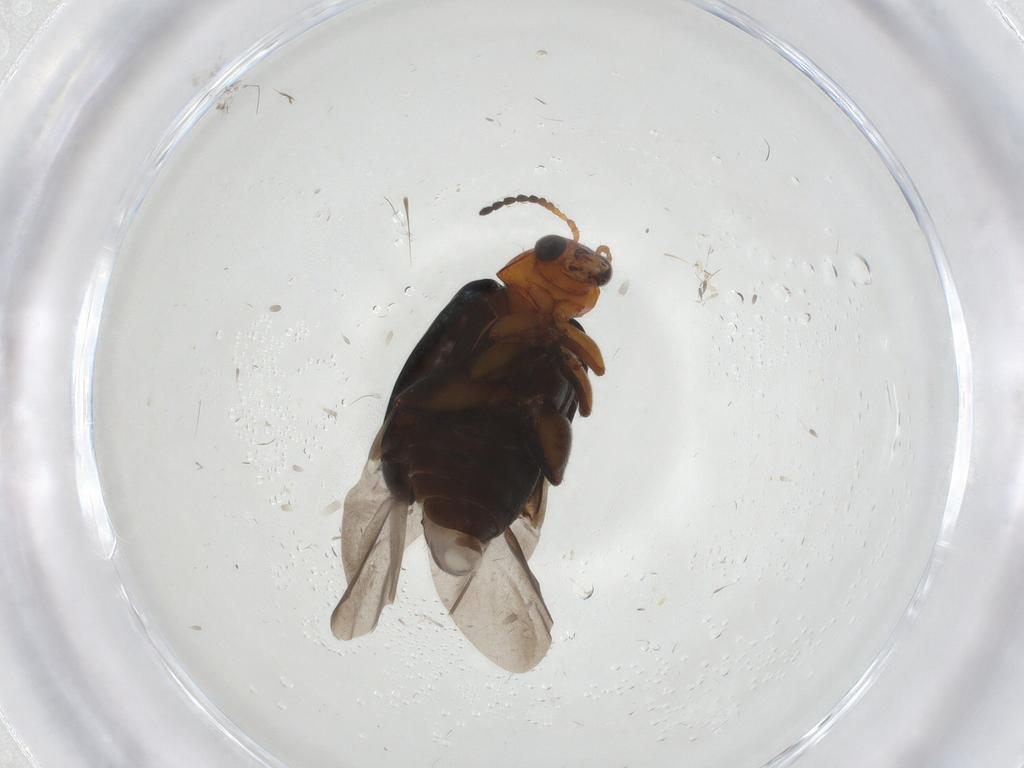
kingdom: Animalia
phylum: Arthropoda
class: Insecta
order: Coleoptera
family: Chrysomelidae
